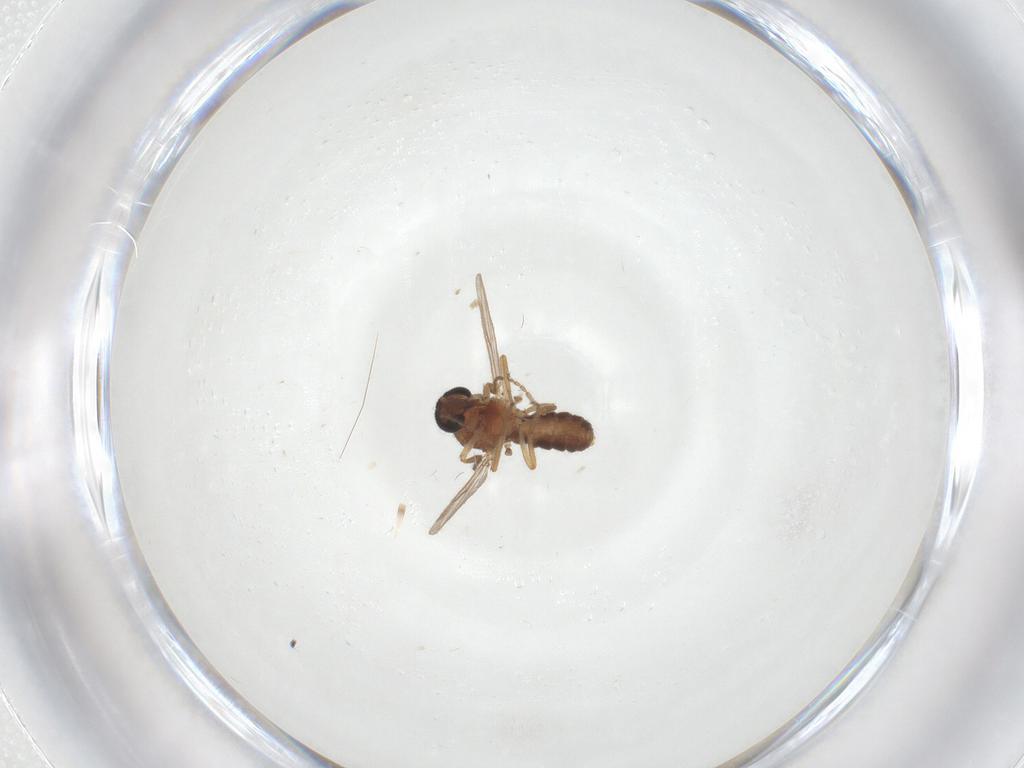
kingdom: Animalia
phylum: Arthropoda
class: Insecta
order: Diptera
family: Ceratopogonidae
